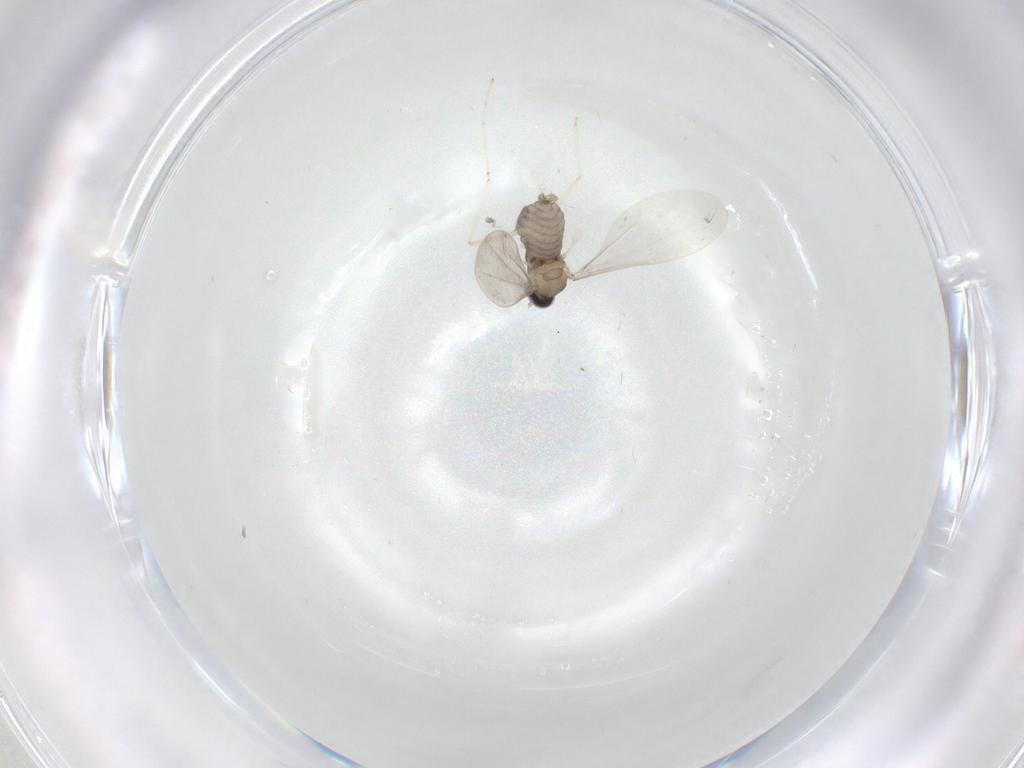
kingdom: Animalia
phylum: Arthropoda
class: Insecta
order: Diptera
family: Cecidomyiidae
